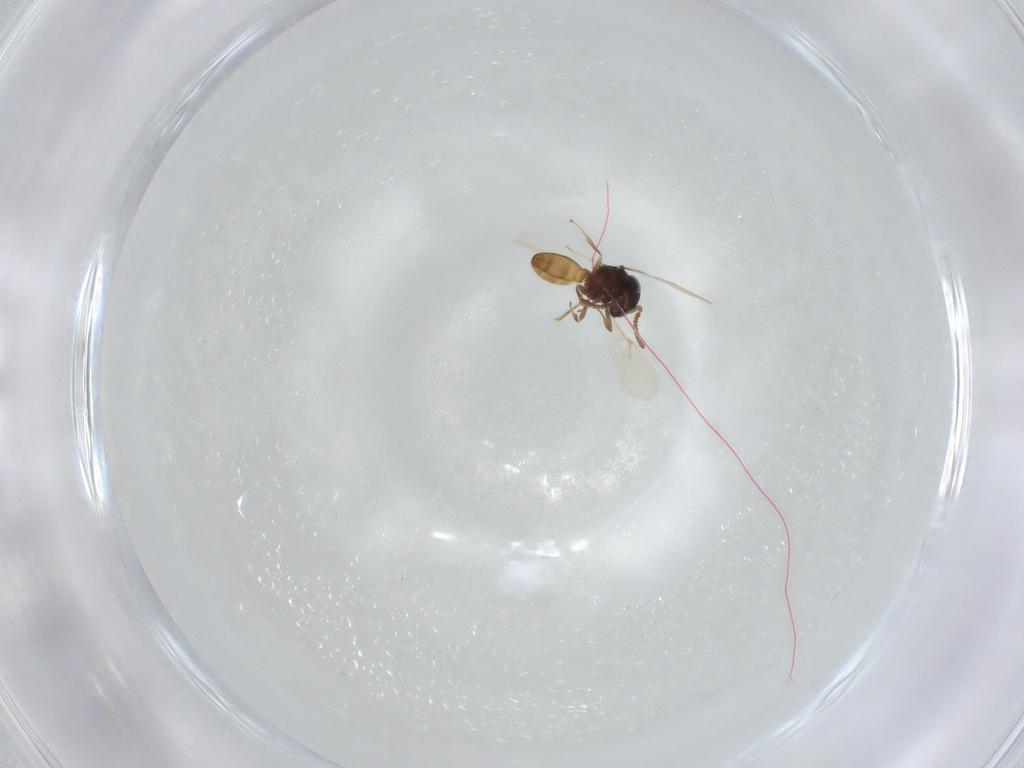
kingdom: Animalia
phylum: Arthropoda
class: Insecta
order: Hymenoptera
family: Scelionidae
